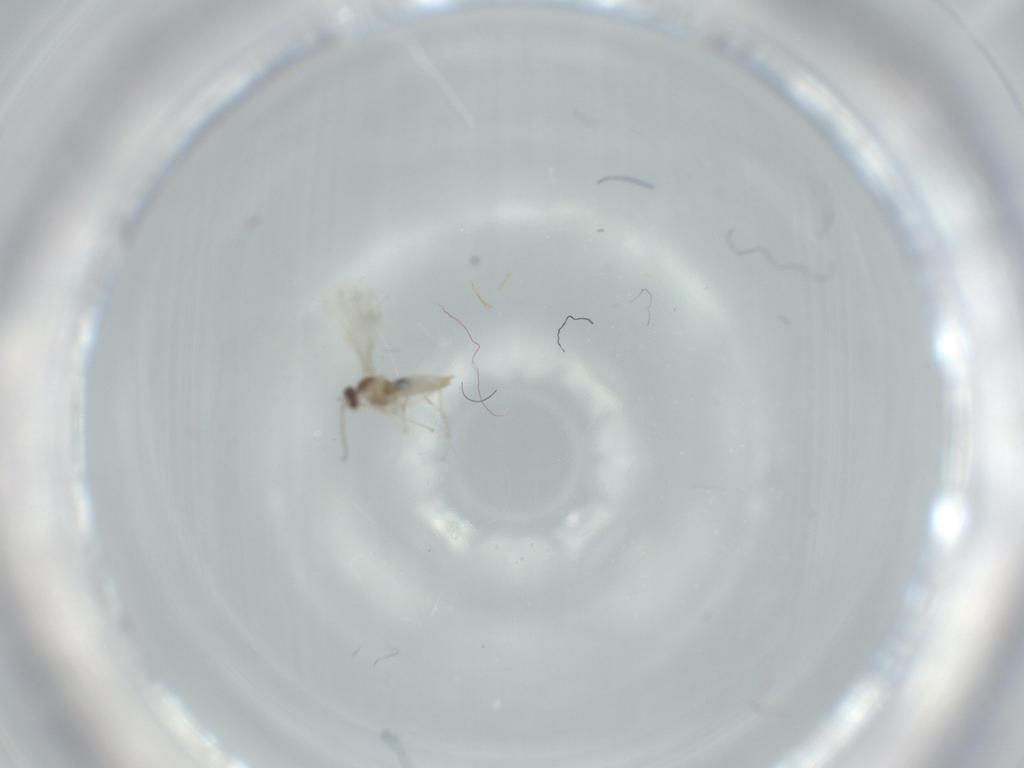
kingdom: Animalia
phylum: Arthropoda
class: Insecta
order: Diptera
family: Cecidomyiidae
